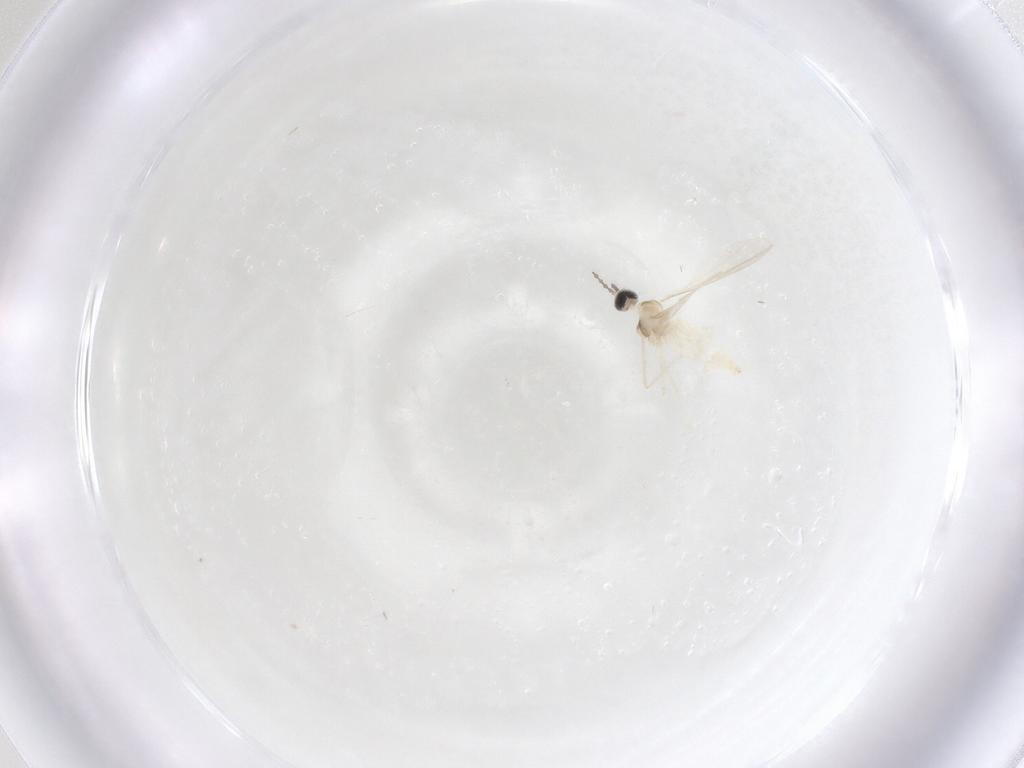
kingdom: Animalia
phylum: Arthropoda
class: Insecta
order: Diptera
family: Cecidomyiidae
